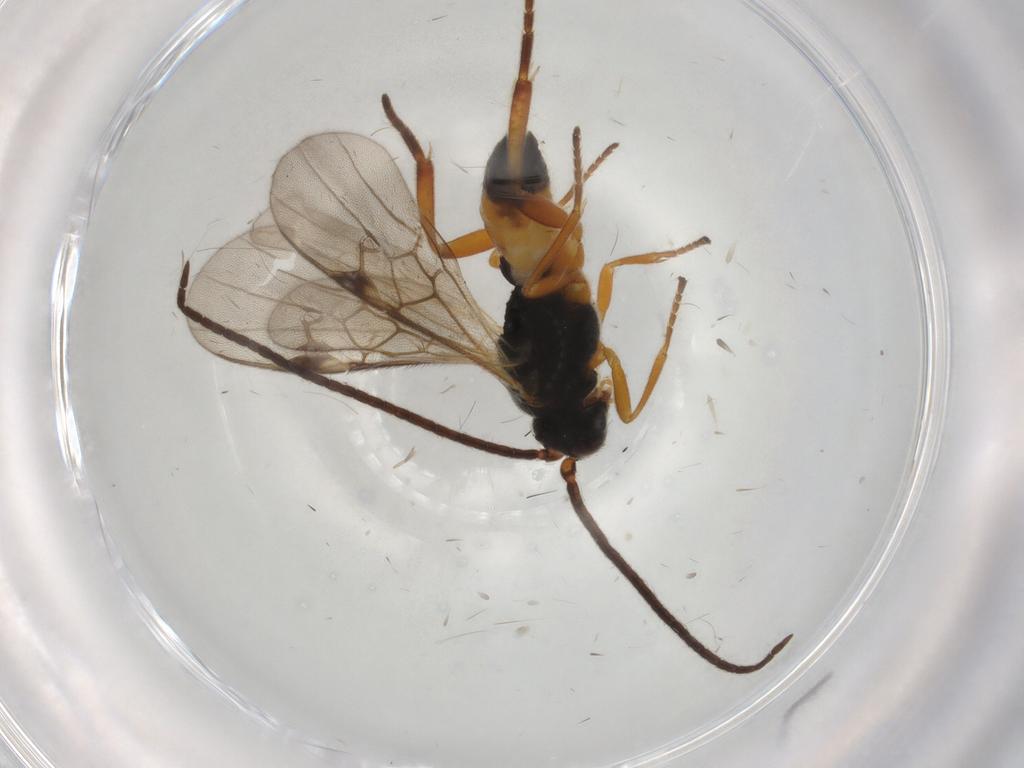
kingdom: Animalia
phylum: Arthropoda
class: Insecta
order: Hymenoptera
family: Braconidae
